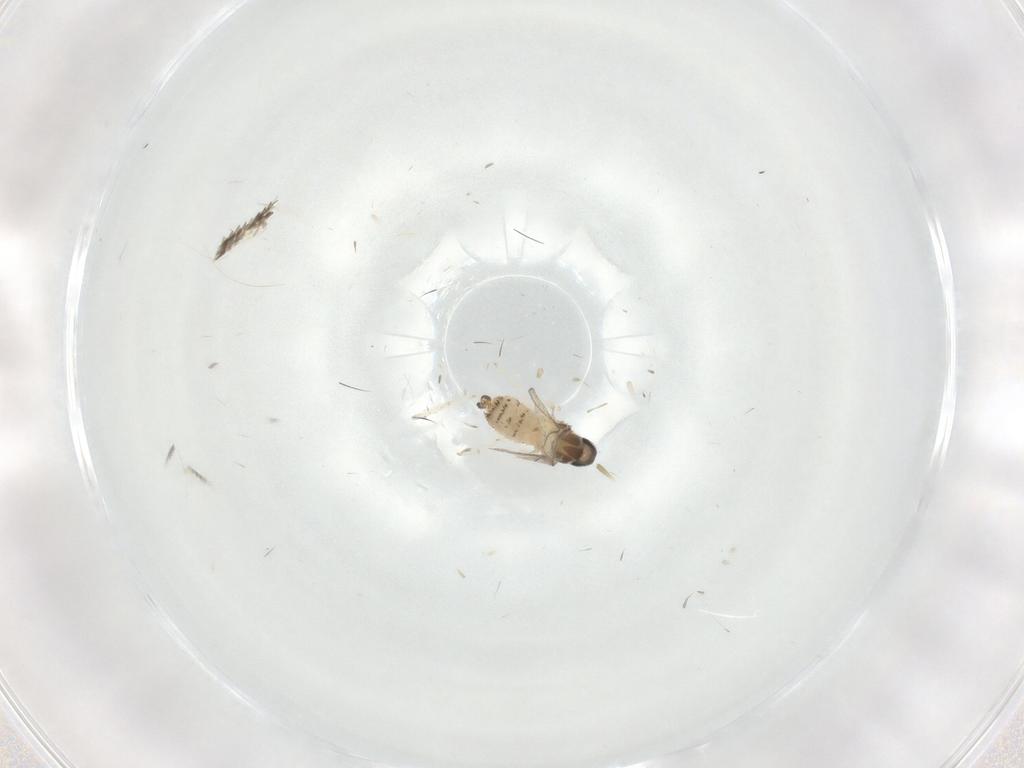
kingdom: Animalia
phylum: Arthropoda
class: Insecta
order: Diptera
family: Cecidomyiidae
